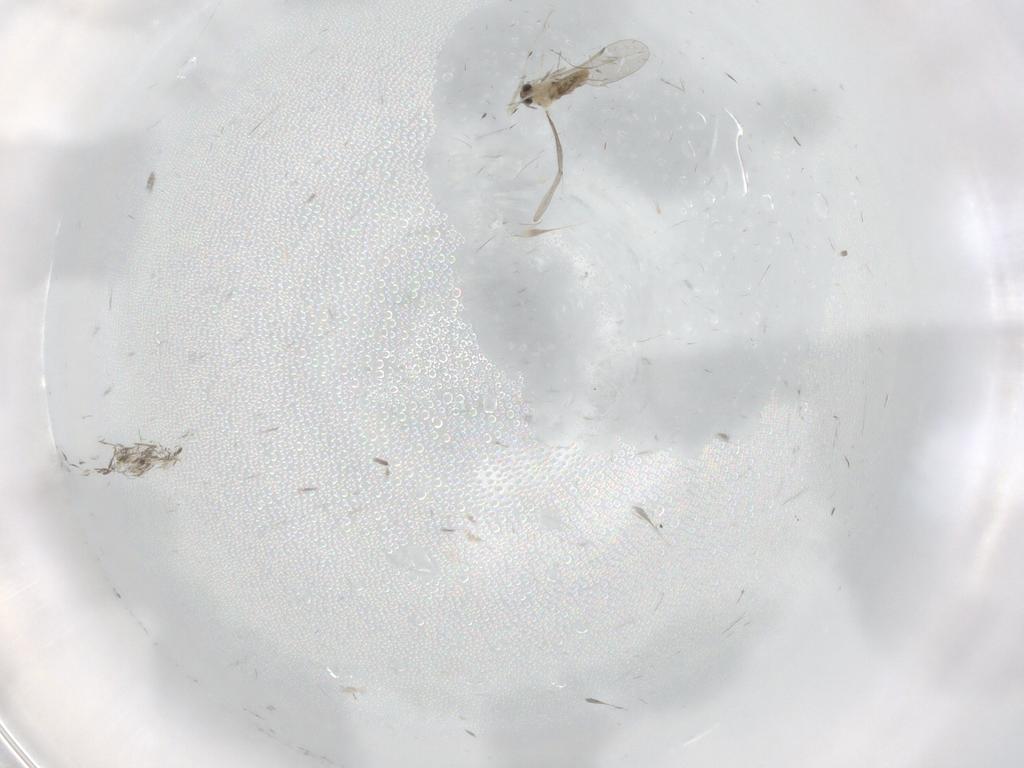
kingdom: Animalia
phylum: Arthropoda
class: Insecta
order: Diptera
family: Chironomidae
